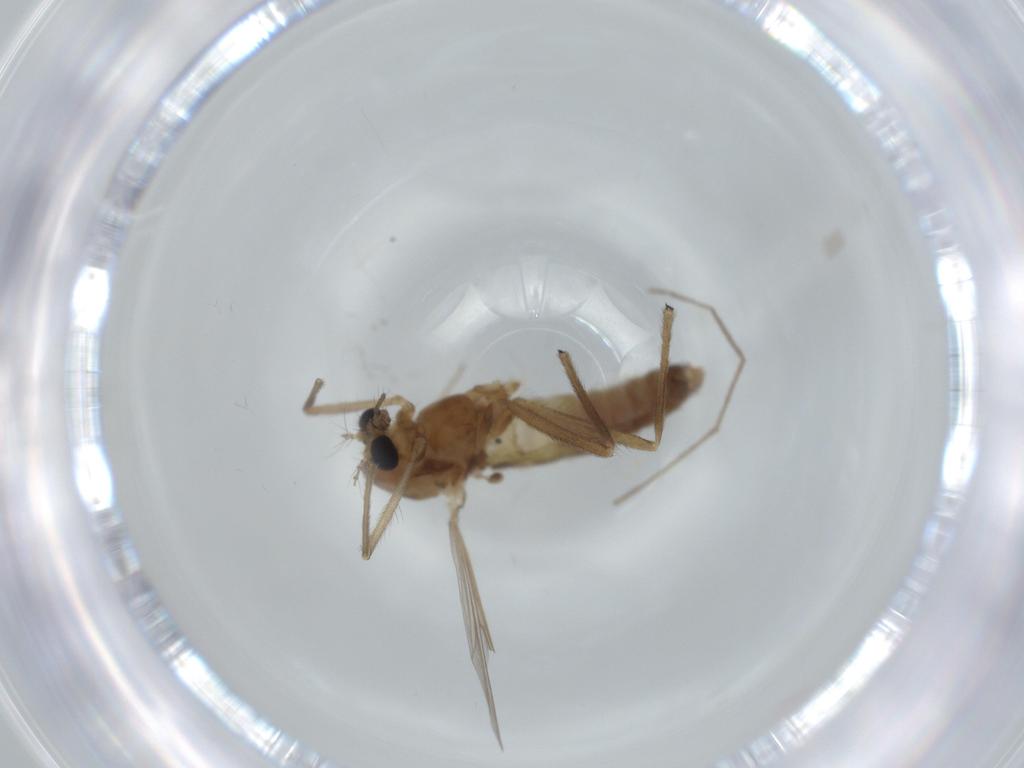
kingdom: Animalia
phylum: Arthropoda
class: Insecta
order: Diptera
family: Chironomidae
